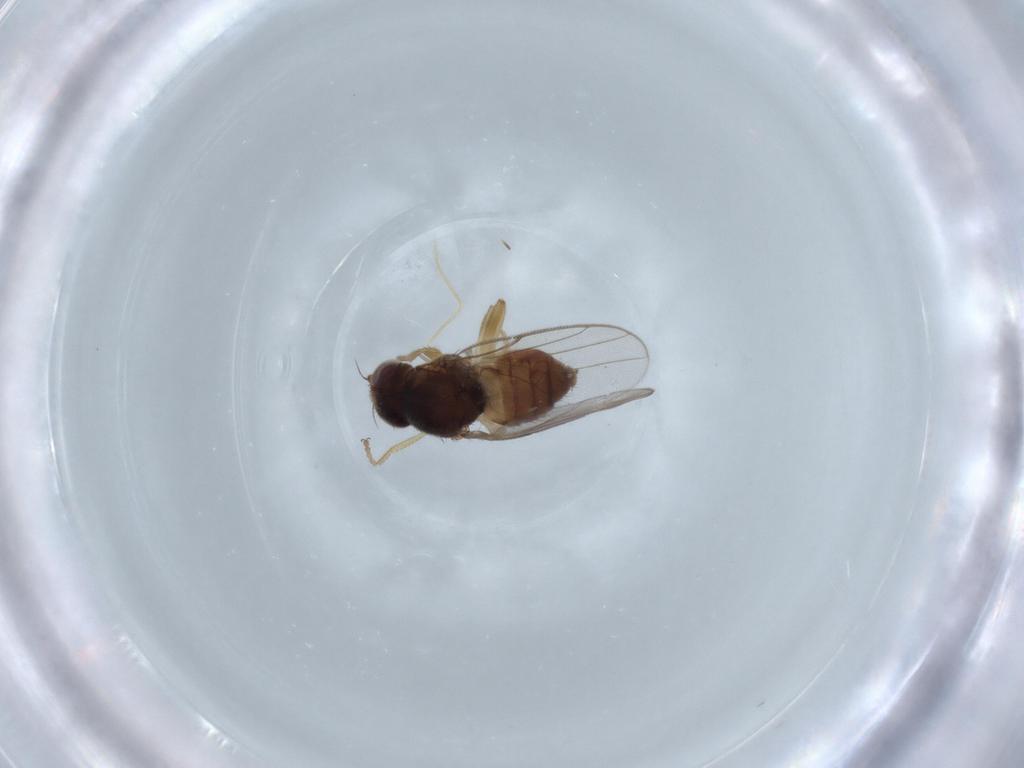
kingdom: Animalia
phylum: Arthropoda
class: Insecta
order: Diptera
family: Chloropidae
